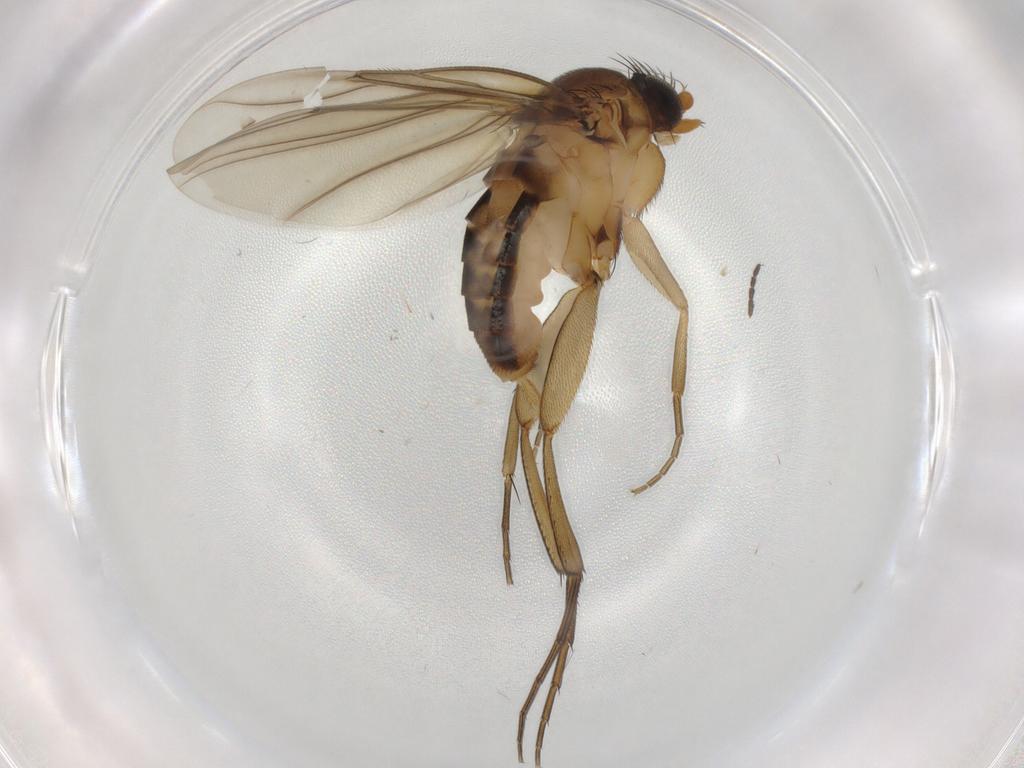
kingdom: Animalia
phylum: Arthropoda
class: Insecta
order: Diptera
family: Phoridae
